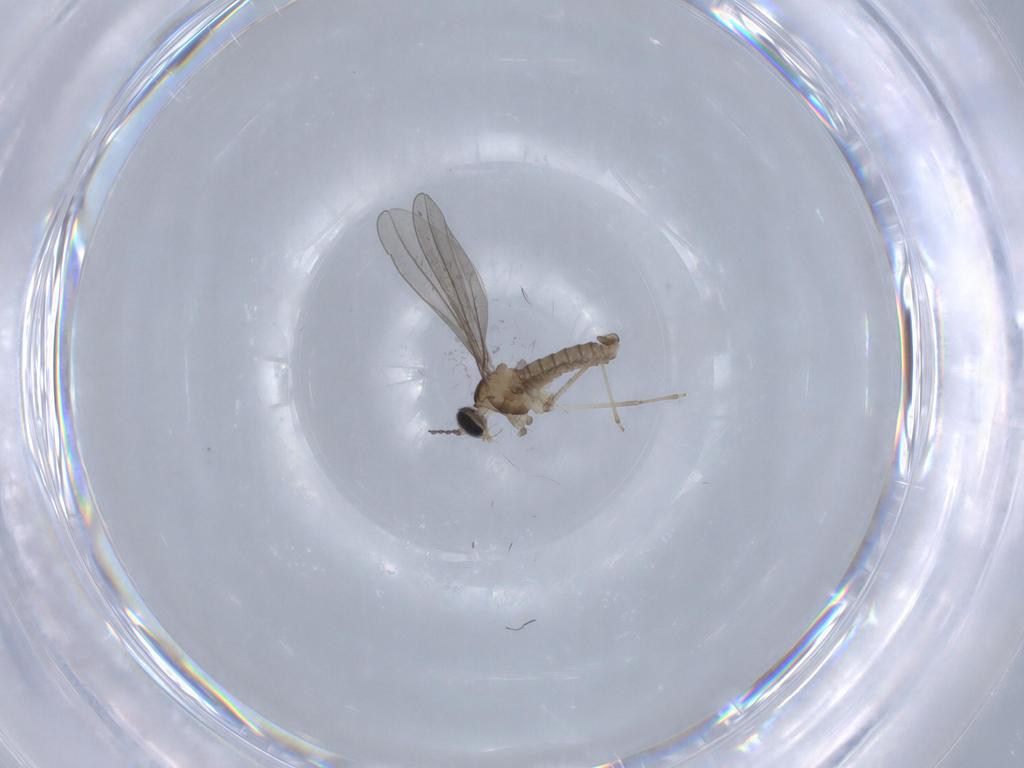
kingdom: Animalia
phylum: Arthropoda
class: Insecta
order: Diptera
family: Cecidomyiidae
